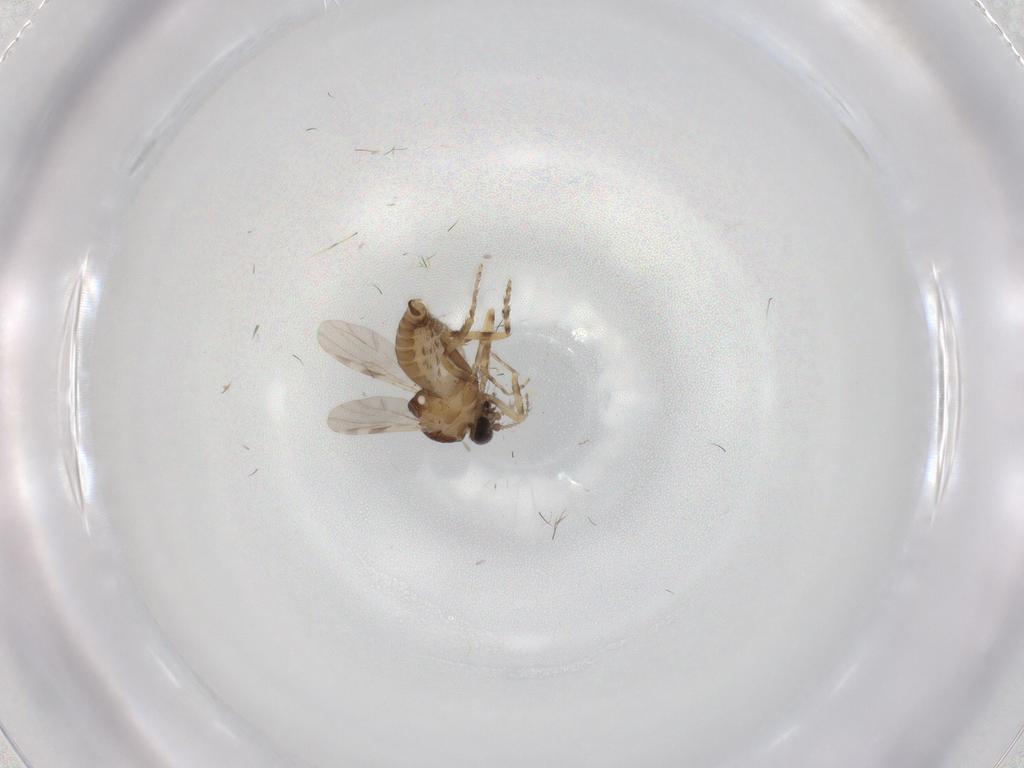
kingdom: Animalia
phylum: Arthropoda
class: Insecta
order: Diptera
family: Ceratopogonidae
